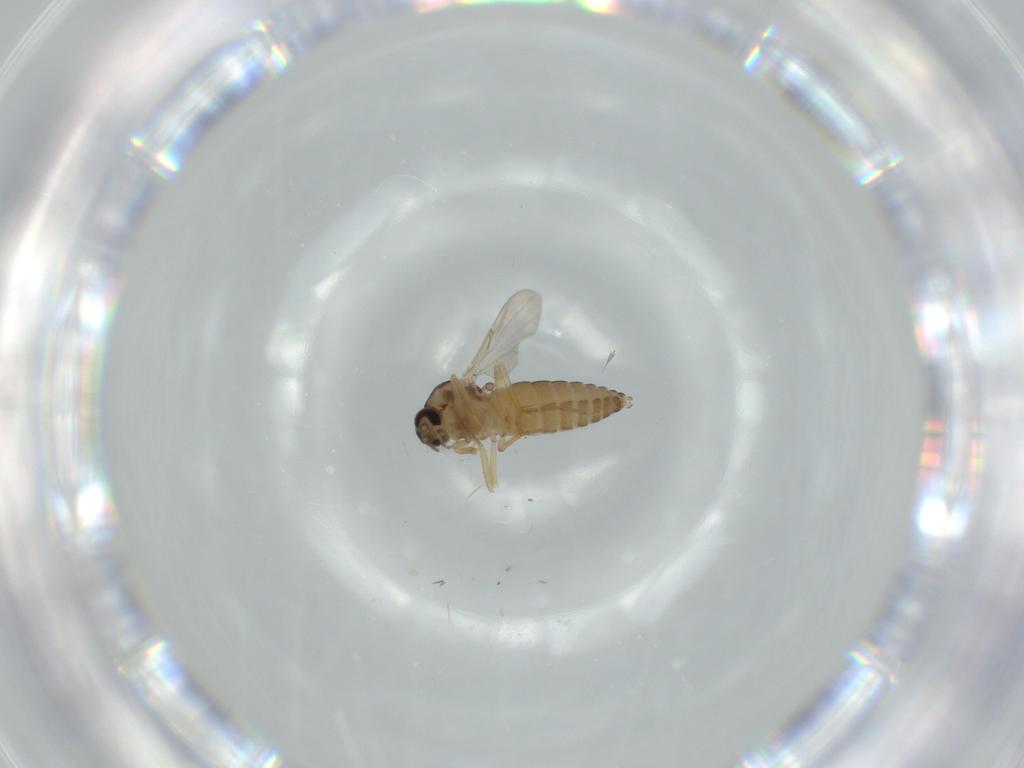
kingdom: Animalia
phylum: Arthropoda
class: Insecta
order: Diptera
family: Ceratopogonidae
